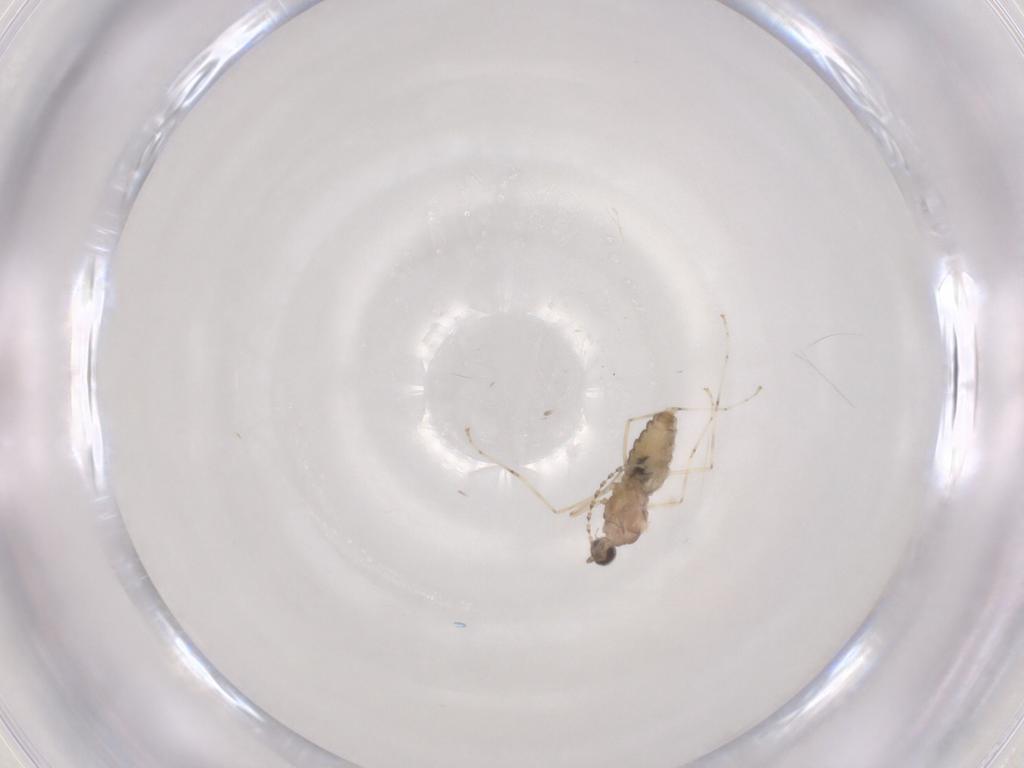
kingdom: Animalia
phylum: Arthropoda
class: Insecta
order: Diptera
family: Cecidomyiidae
